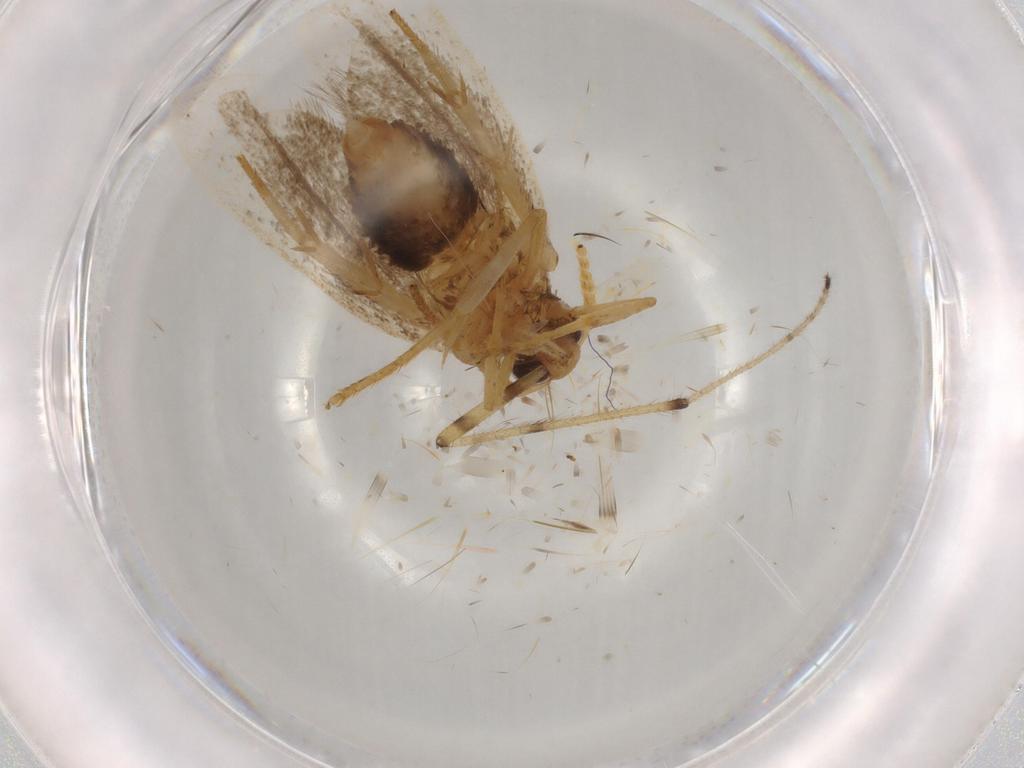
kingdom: Animalia
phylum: Arthropoda
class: Insecta
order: Lepidoptera
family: Lecithoceridae
